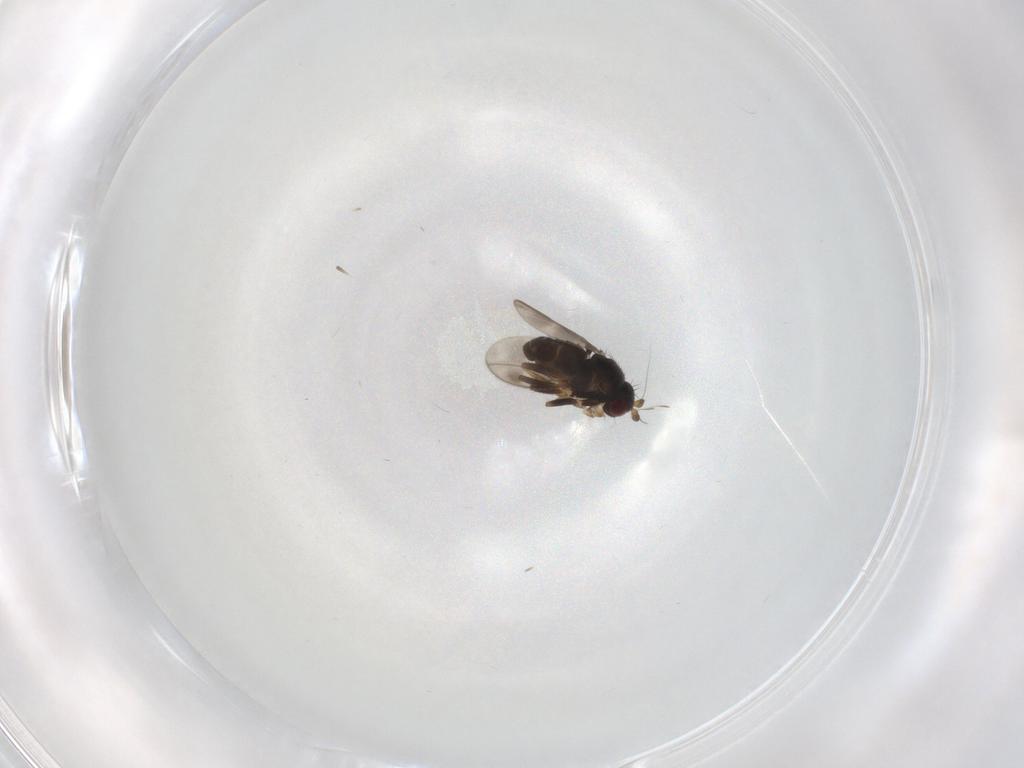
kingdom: Animalia
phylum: Arthropoda
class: Insecta
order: Diptera
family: Sphaeroceridae
